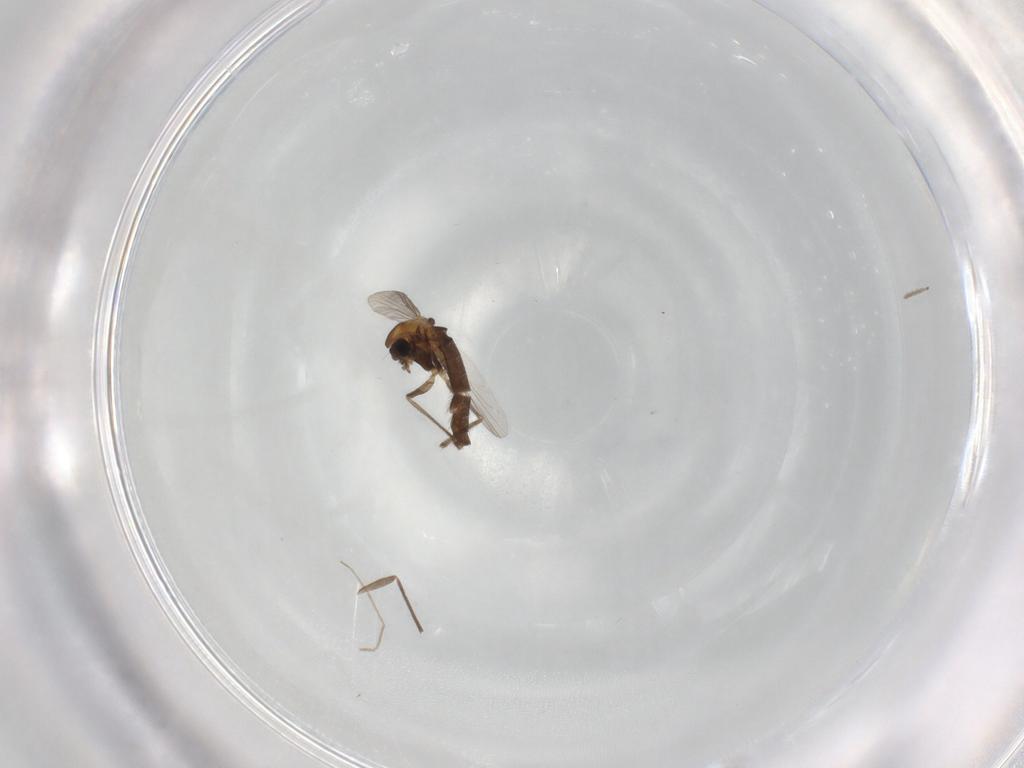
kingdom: Animalia
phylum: Arthropoda
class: Insecta
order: Diptera
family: Chironomidae
